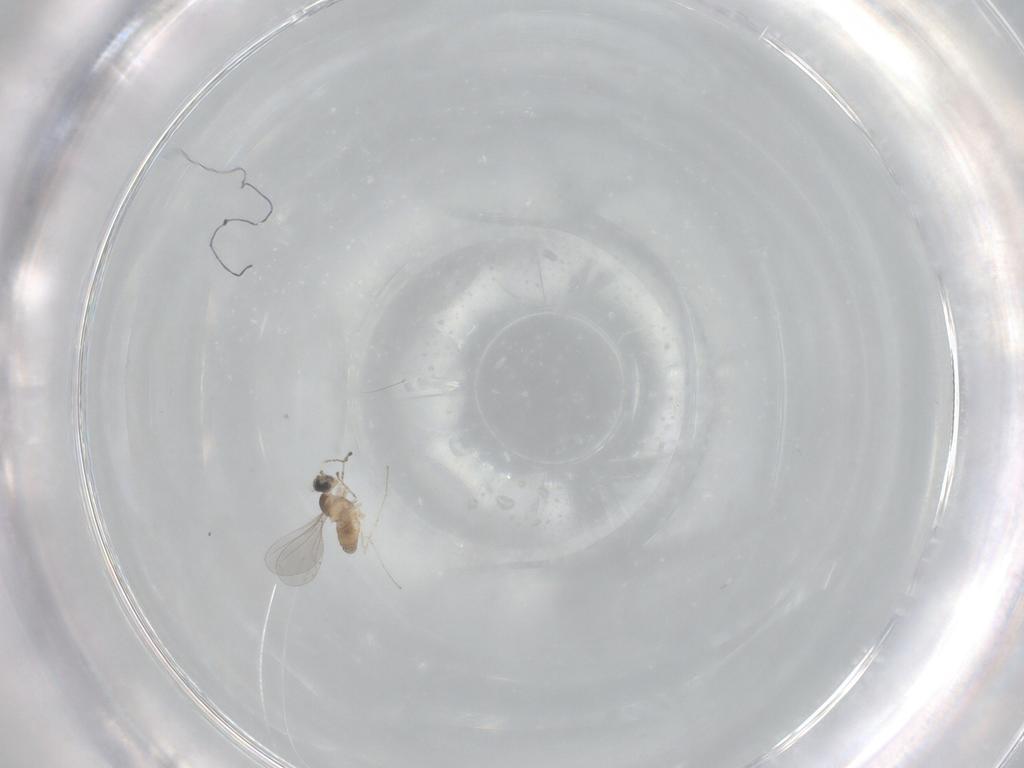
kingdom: Animalia
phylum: Arthropoda
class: Insecta
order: Diptera
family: Cecidomyiidae
